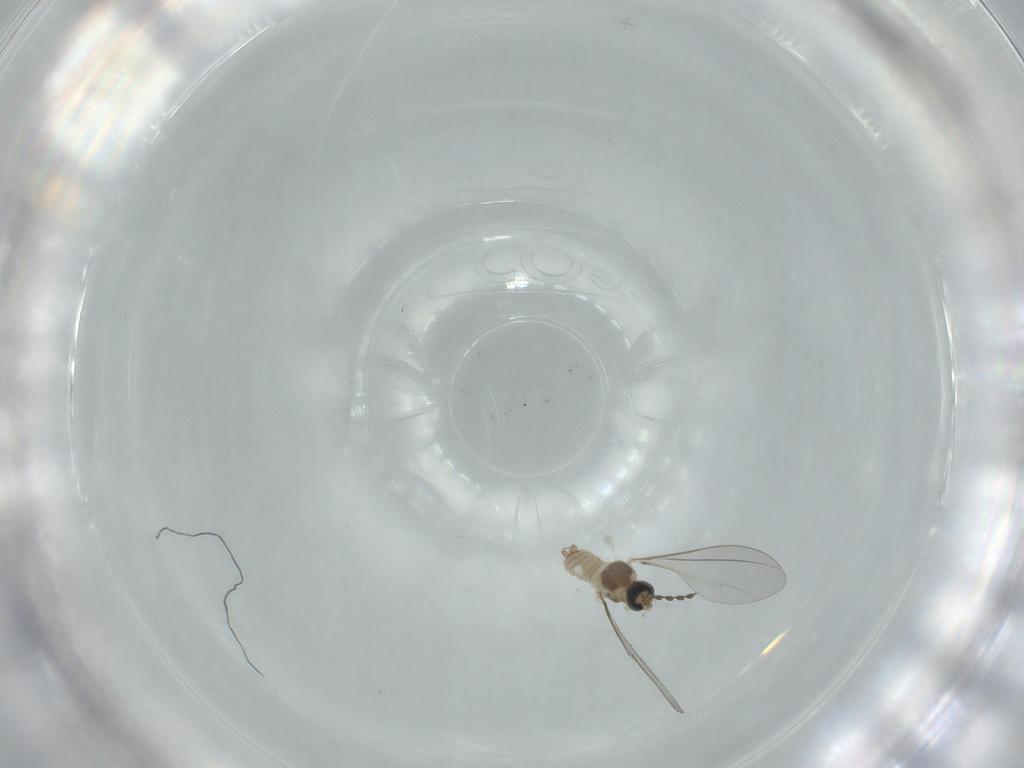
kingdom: Animalia
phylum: Arthropoda
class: Insecta
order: Diptera
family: Cecidomyiidae
